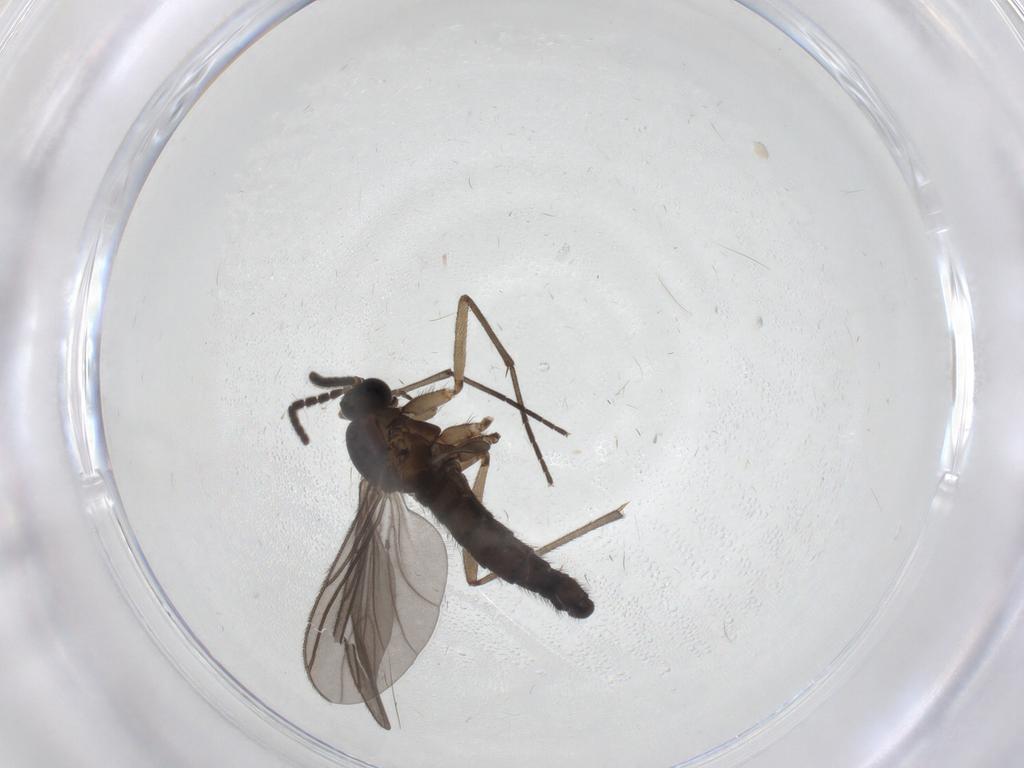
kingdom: Animalia
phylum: Arthropoda
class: Insecta
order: Diptera
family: Sciaridae
